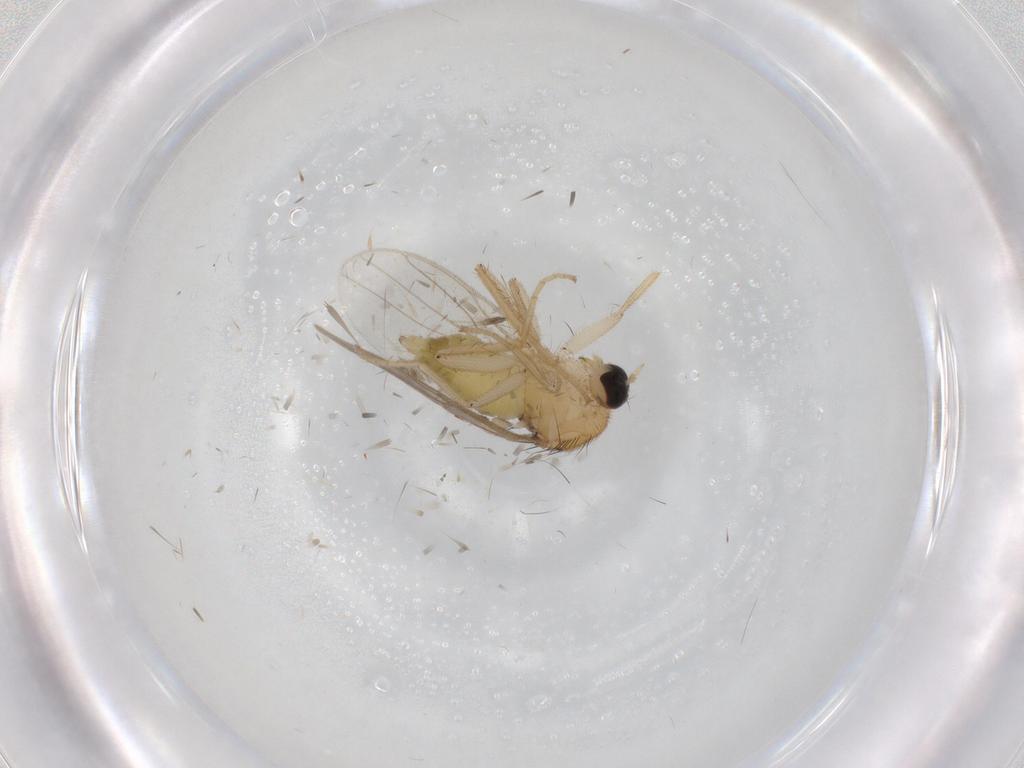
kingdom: Animalia
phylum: Arthropoda
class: Insecta
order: Diptera
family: Hybotidae
